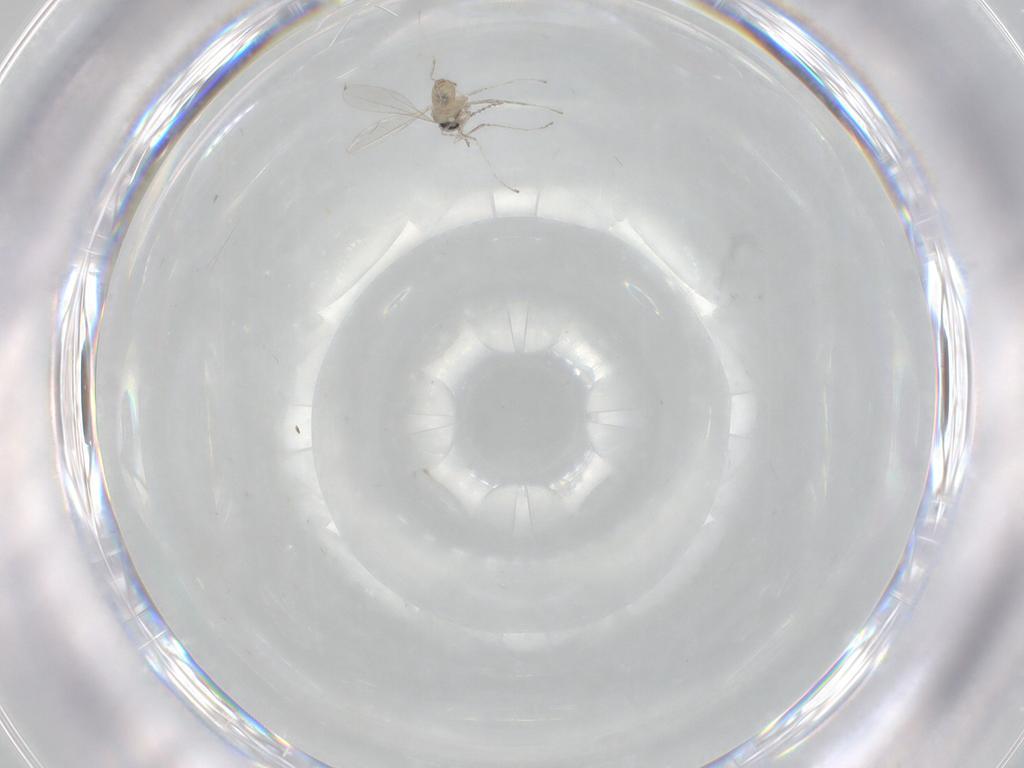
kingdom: Animalia
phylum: Arthropoda
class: Insecta
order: Diptera
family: Cecidomyiidae
